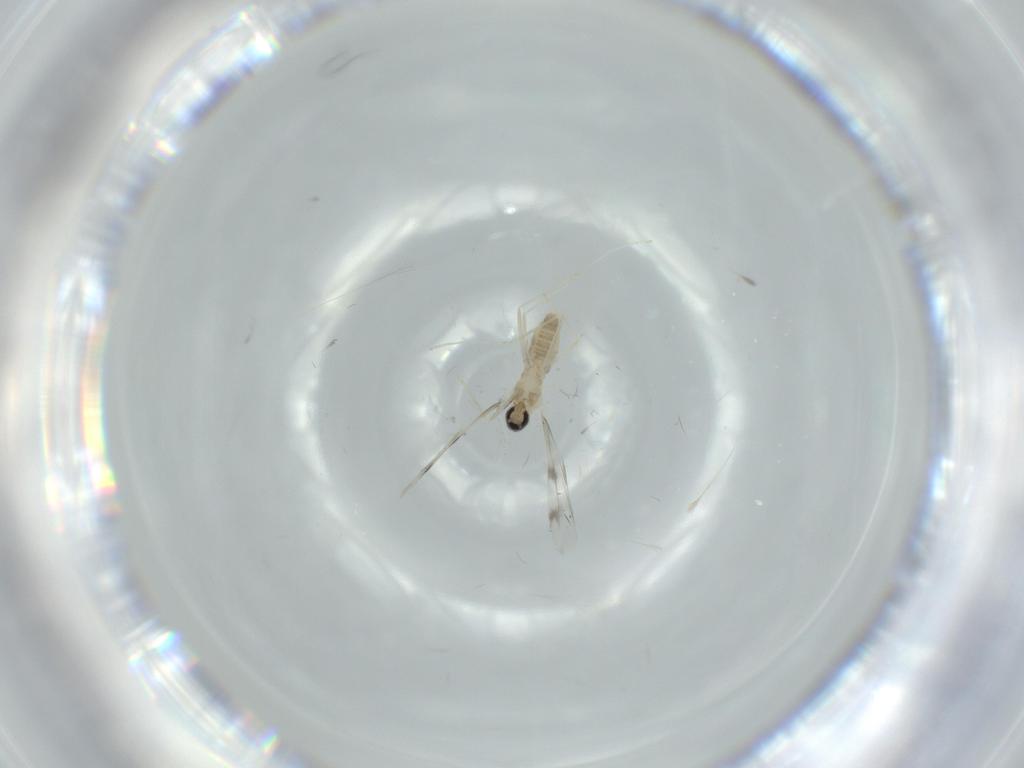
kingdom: Animalia
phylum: Arthropoda
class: Insecta
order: Diptera
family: Cecidomyiidae
